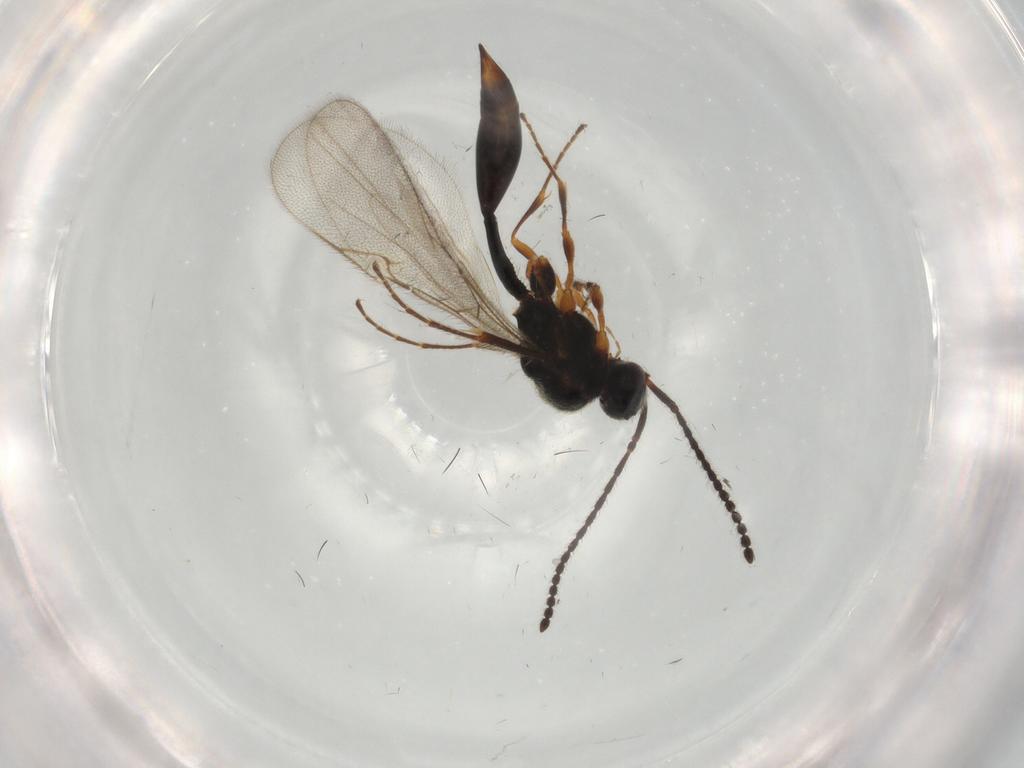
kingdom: Animalia
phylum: Arthropoda
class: Insecta
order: Hymenoptera
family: Diapriidae
